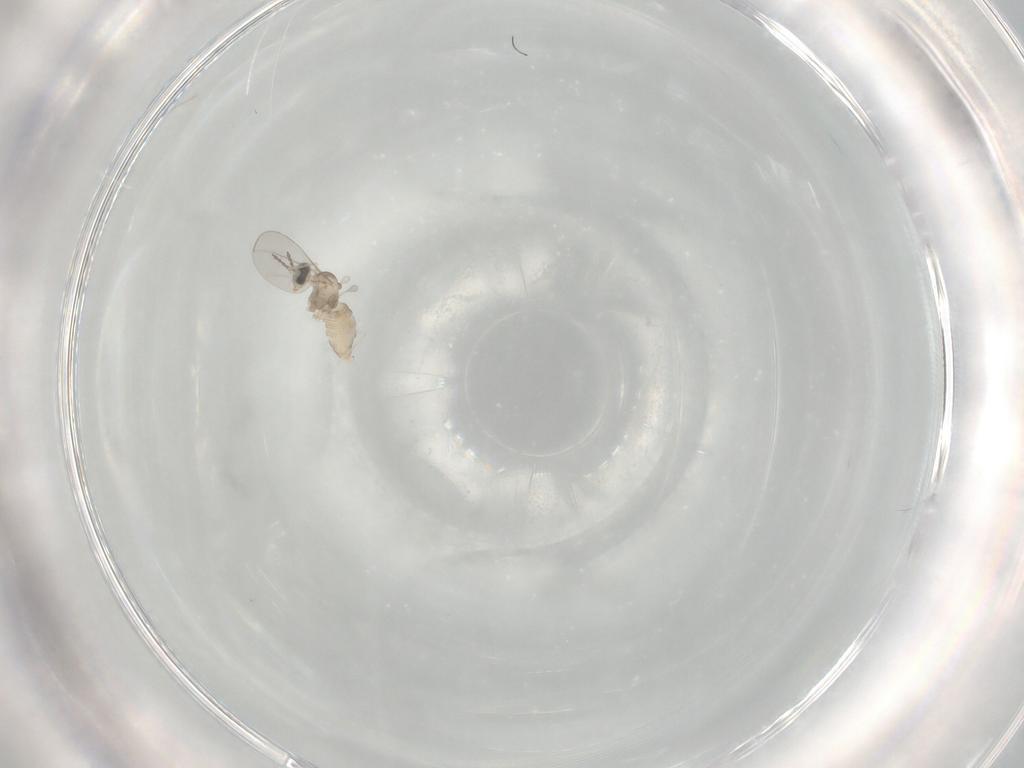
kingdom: Animalia
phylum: Arthropoda
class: Insecta
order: Diptera
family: Cecidomyiidae
